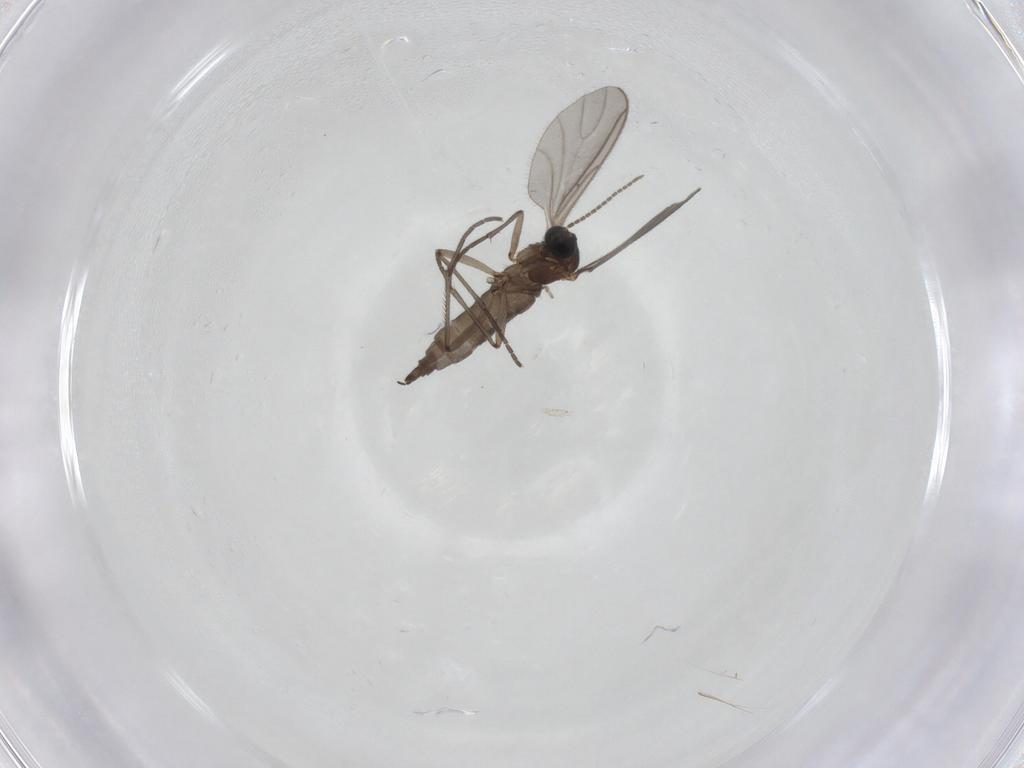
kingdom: Animalia
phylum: Arthropoda
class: Insecta
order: Diptera
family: Sciaridae
